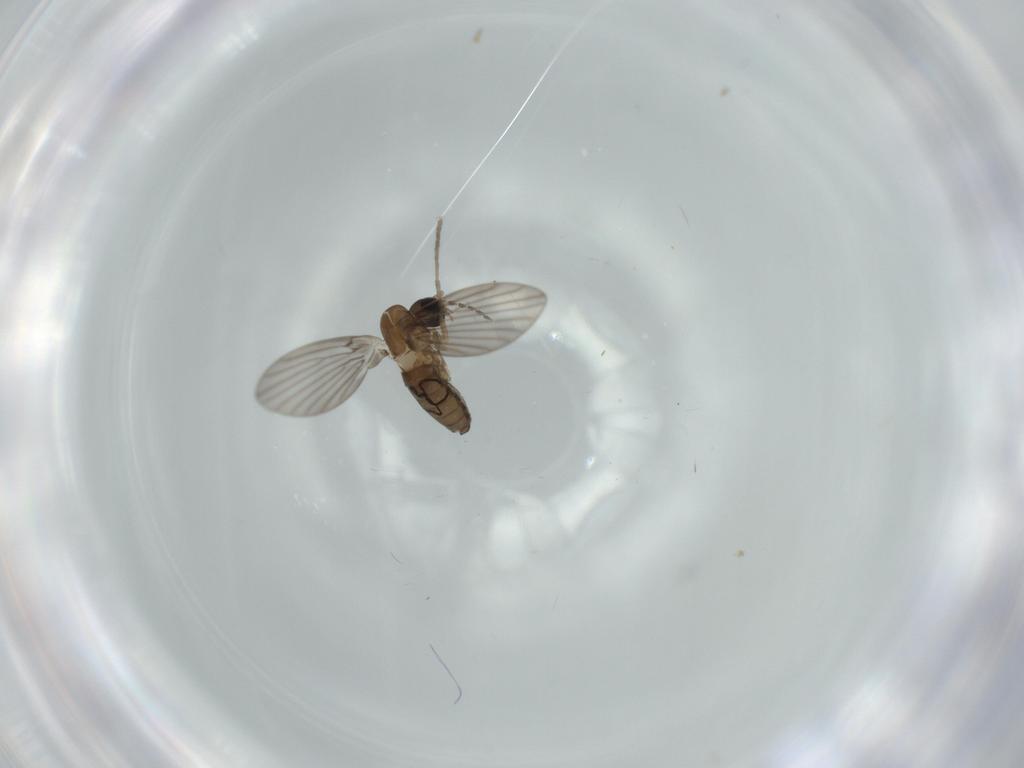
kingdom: Animalia
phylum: Arthropoda
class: Insecta
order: Diptera
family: Psychodidae
